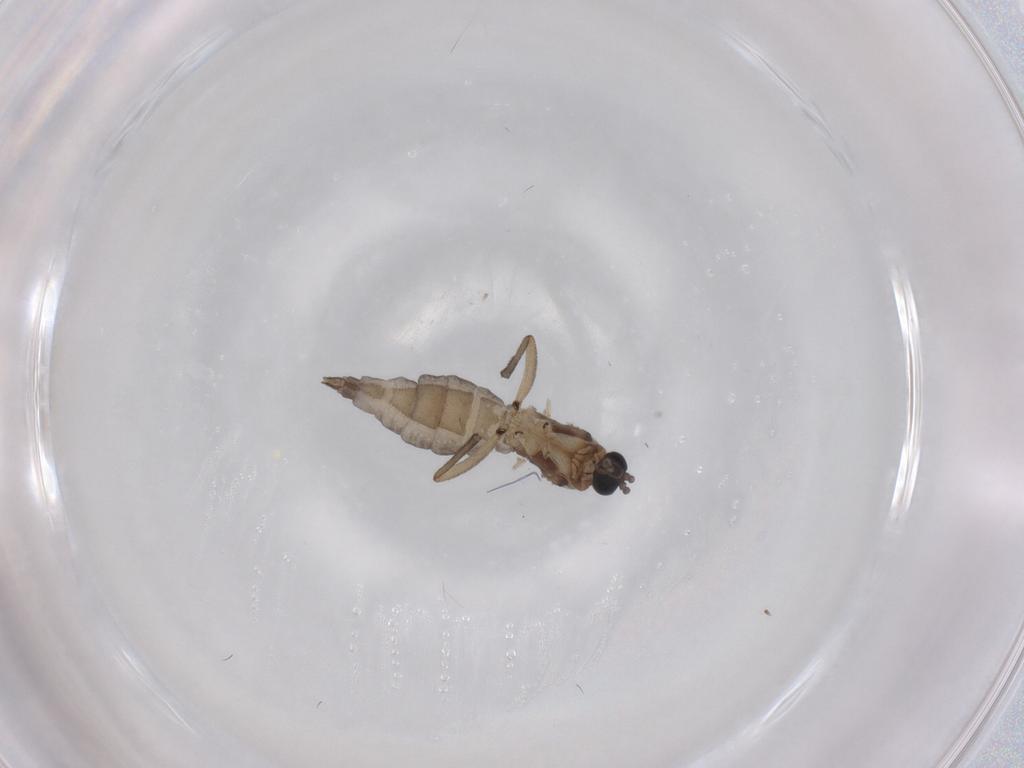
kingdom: Animalia
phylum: Arthropoda
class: Insecta
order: Diptera
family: Sciaridae
